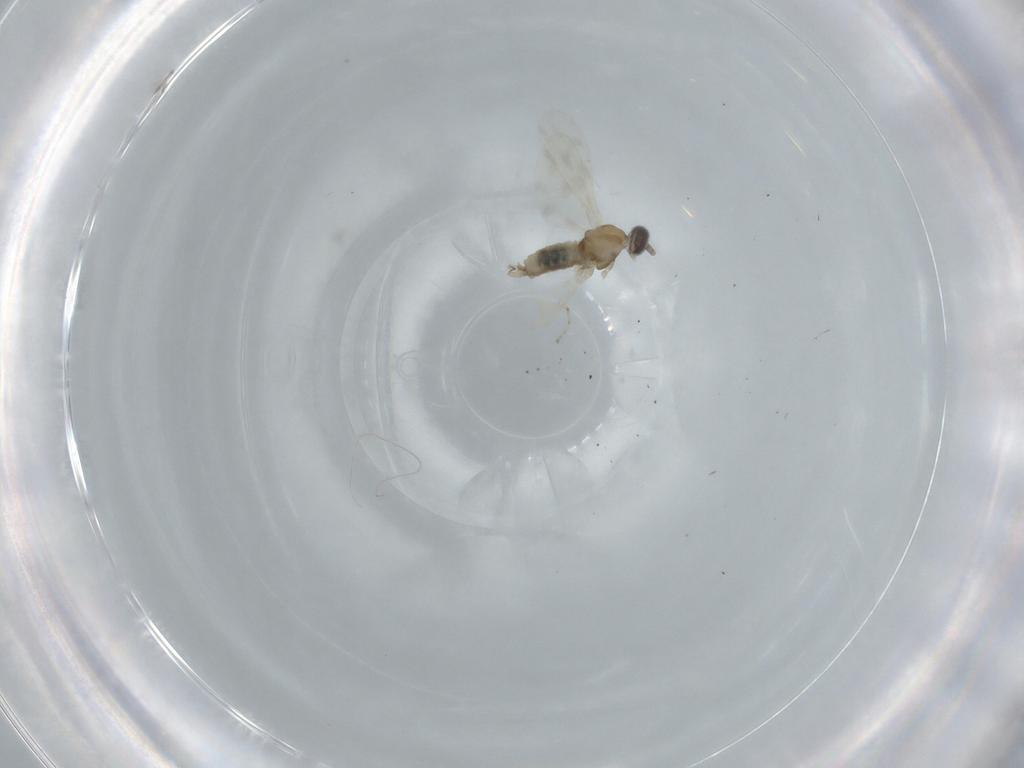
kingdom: Animalia
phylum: Arthropoda
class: Insecta
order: Diptera
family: Cecidomyiidae
